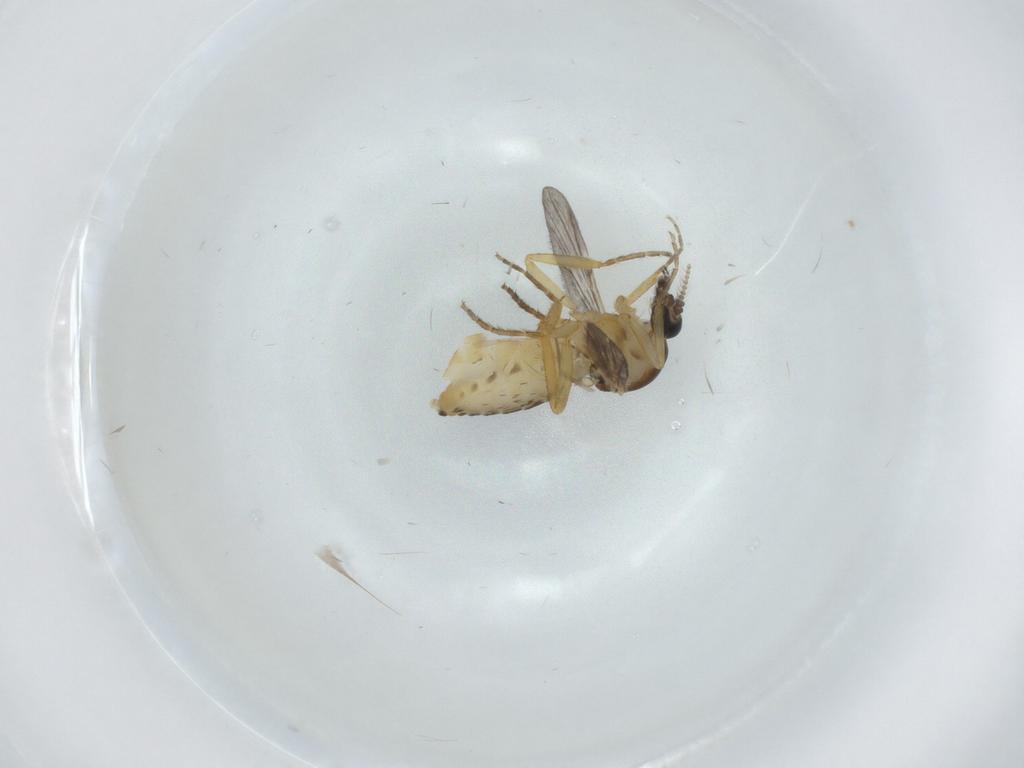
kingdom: Animalia
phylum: Arthropoda
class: Insecta
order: Diptera
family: Ceratopogonidae
